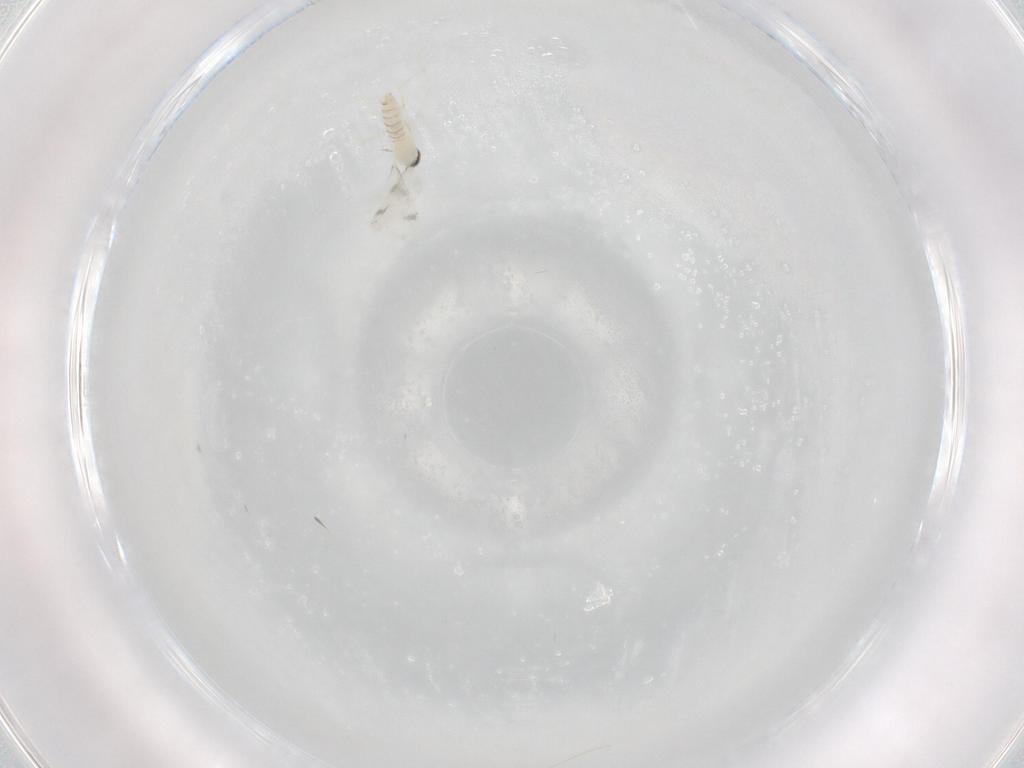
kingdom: Animalia
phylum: Arthropoda
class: Insecta
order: Diptera
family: Cecidomyiidae
